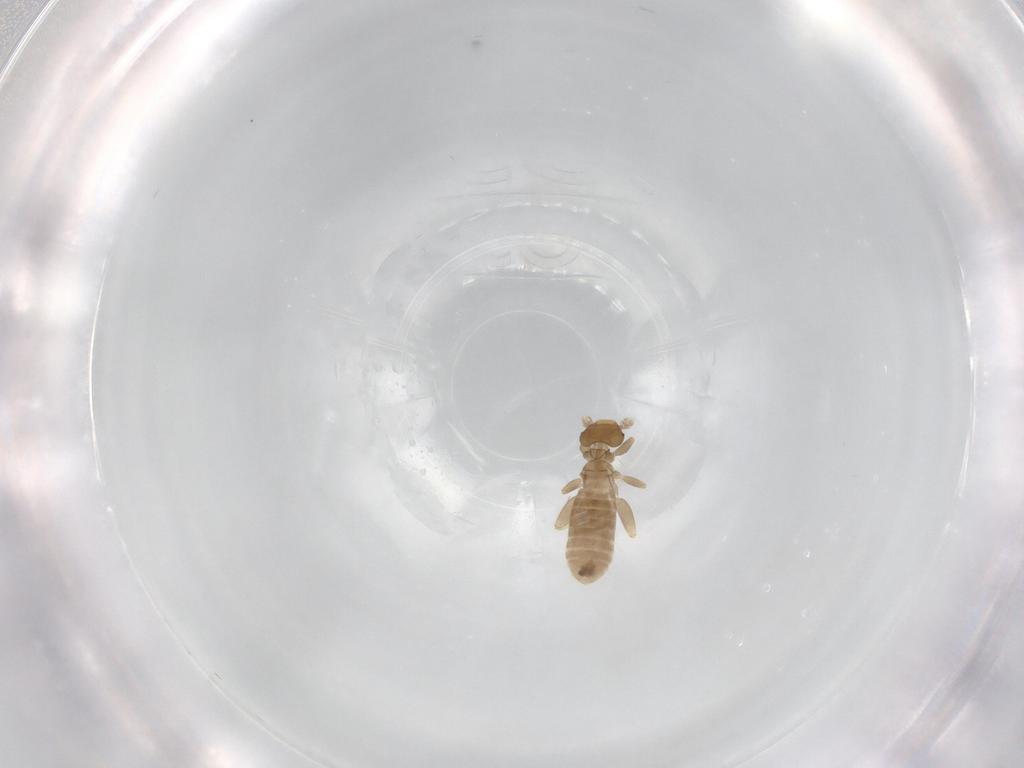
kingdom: Animalia
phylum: Arthropoda
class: Insecta
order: Psocodea
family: Liposcelididae
